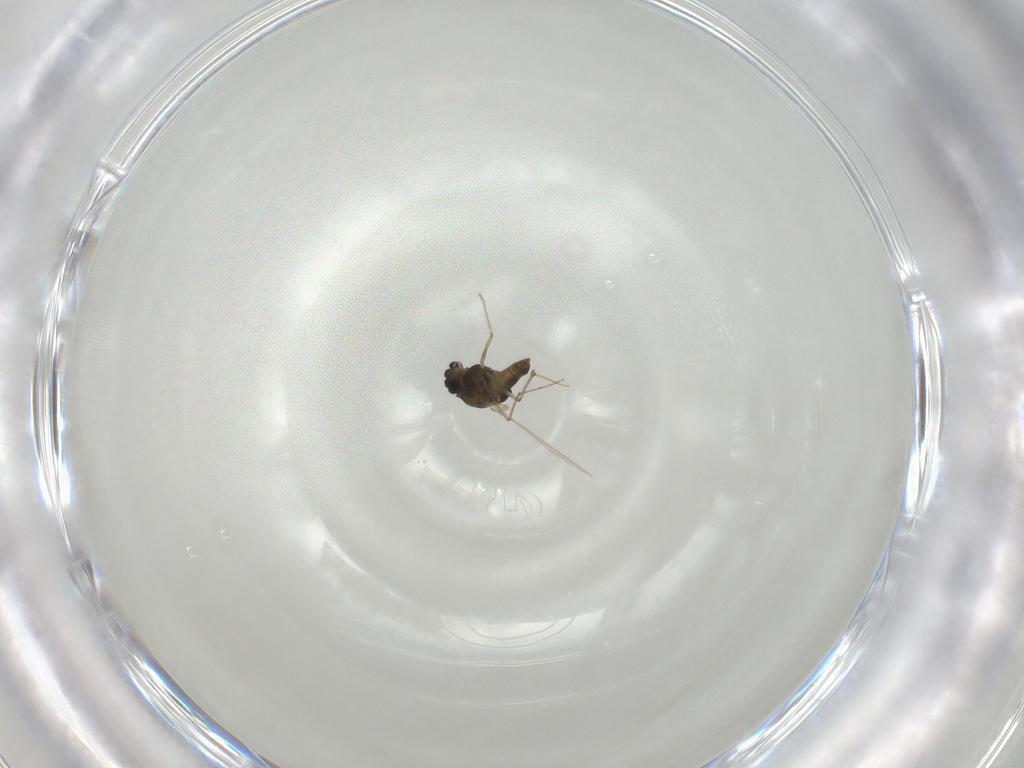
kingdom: Animalia
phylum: Arthropoda
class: Insecta
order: Diptera
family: Chironomidae
